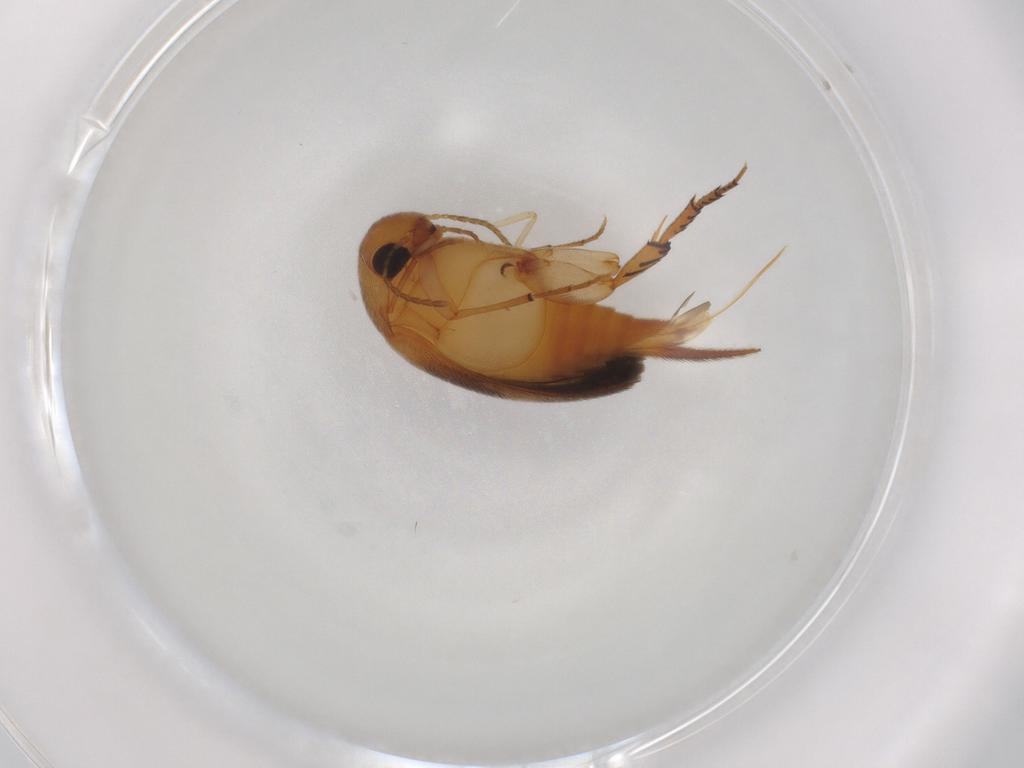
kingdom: Animalia
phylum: Arthropoda
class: Insecta
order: Coleoptera
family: Mordellidae
